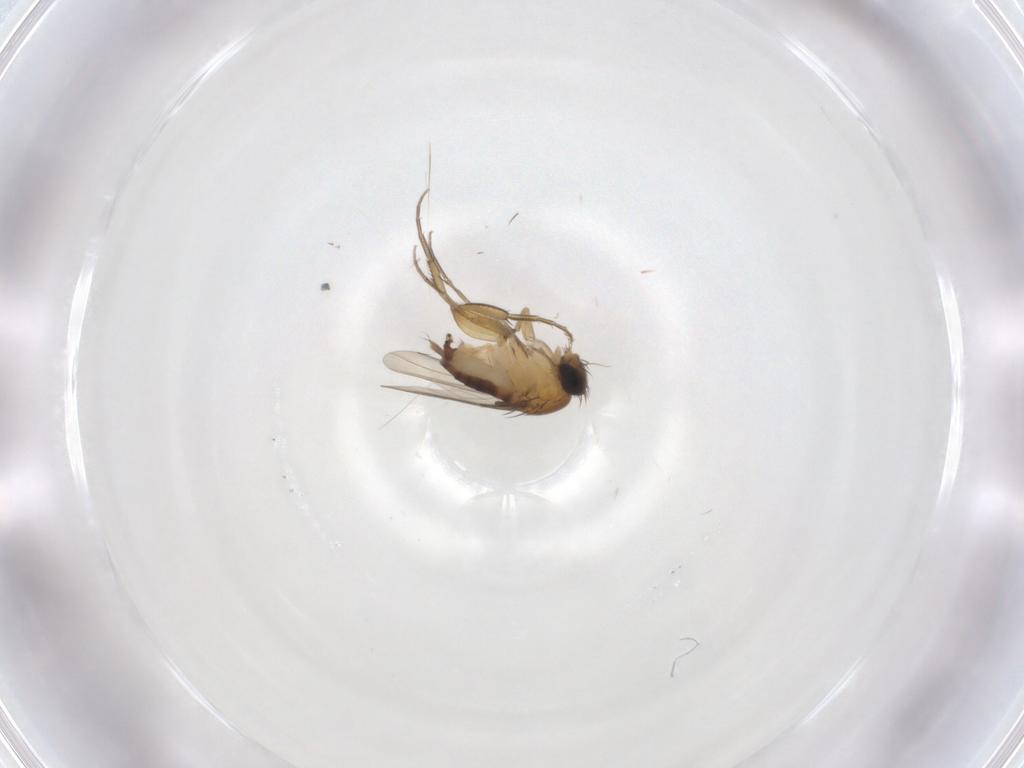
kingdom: Animalia
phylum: Arthropoda
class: Insecta
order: Diptera
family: Phoridae
